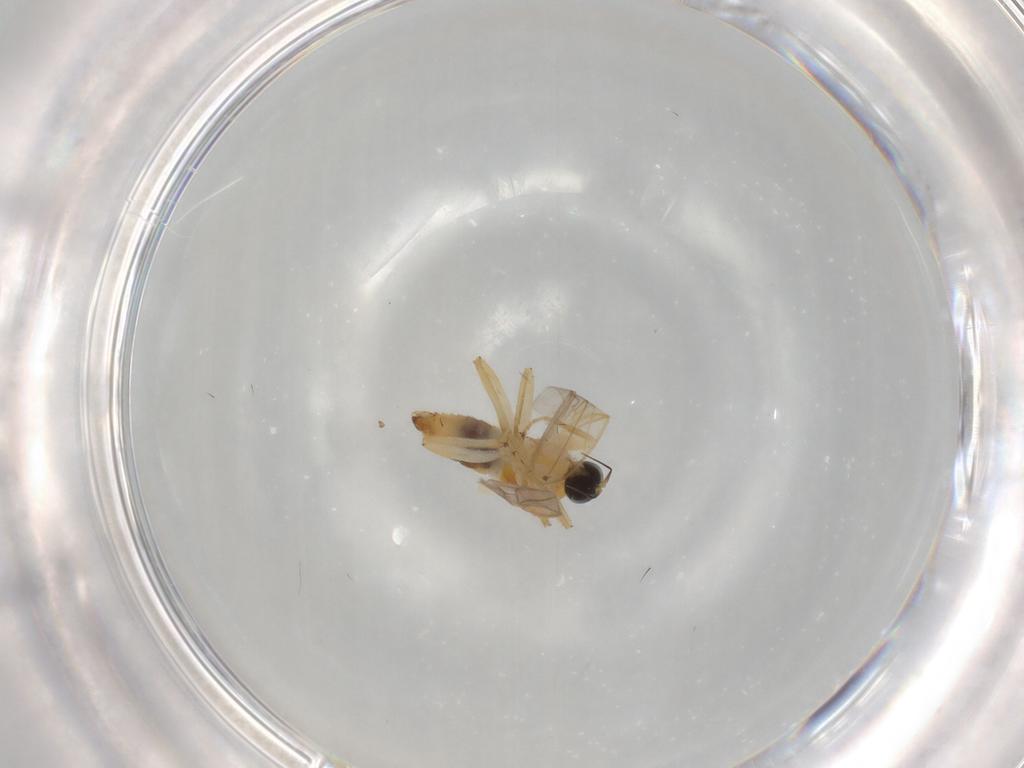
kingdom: Animalia
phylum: Arthropoda
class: Insecta
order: Diptera
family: Hybotidae
